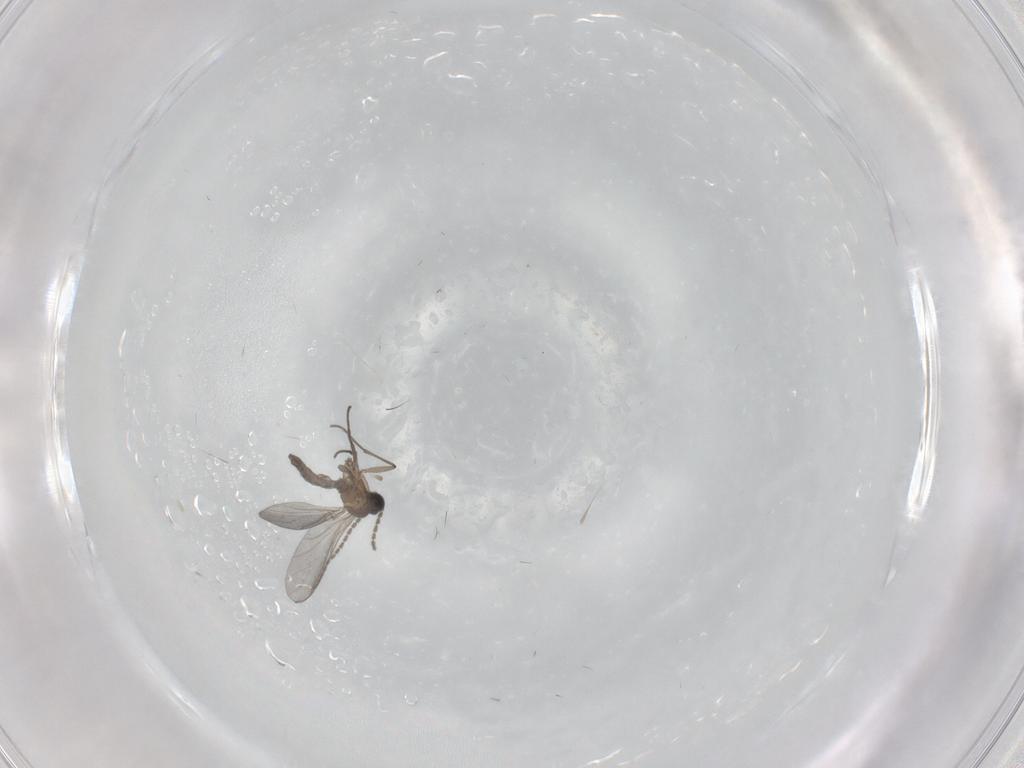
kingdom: Animalia
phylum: Arthropoda
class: Insecta
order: Diptera
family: Sciaridae
